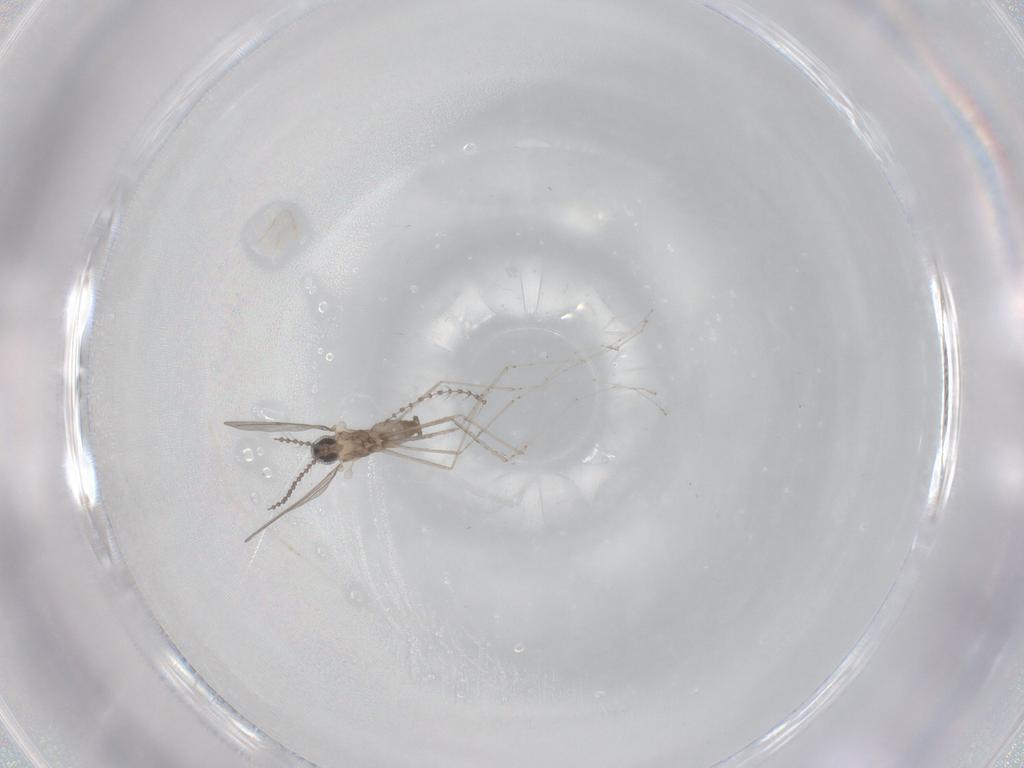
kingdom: Animalia
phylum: Arthropoda
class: Insecta
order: Diptera
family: Cecidomyiidae
